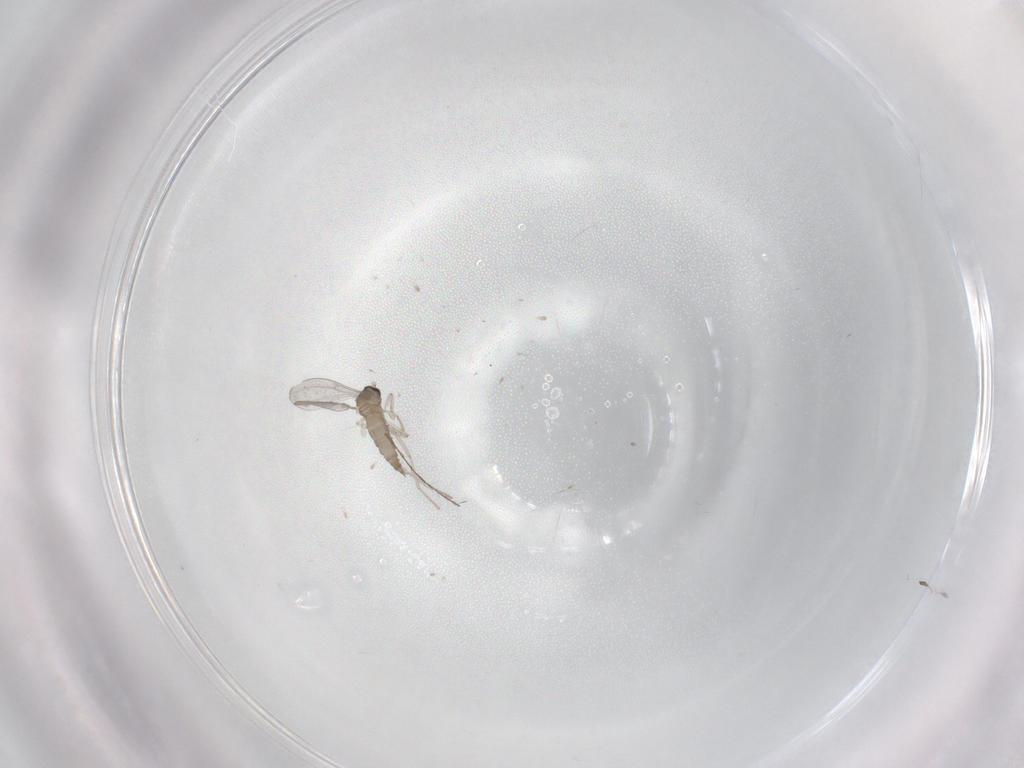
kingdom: Animalia
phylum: Arthropoda
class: Insecta
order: Diptera
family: Cecidomyiidae
